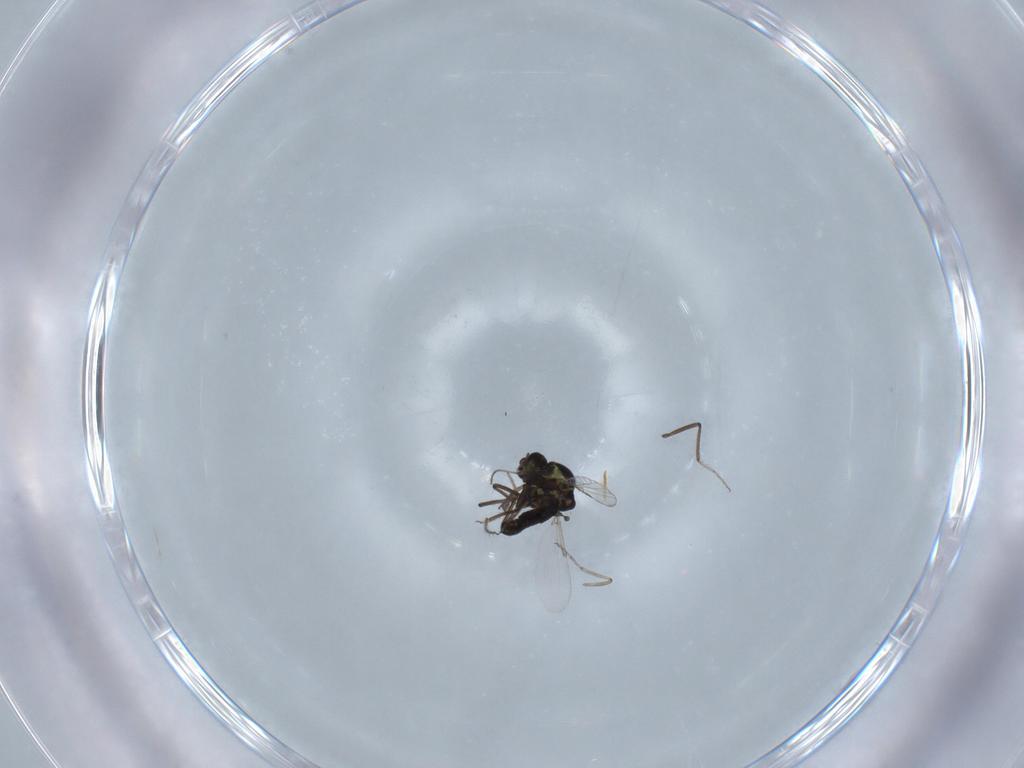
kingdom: Animalia
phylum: Arthropoda
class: Insecta
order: Diptera
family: Ceratopogonidae
